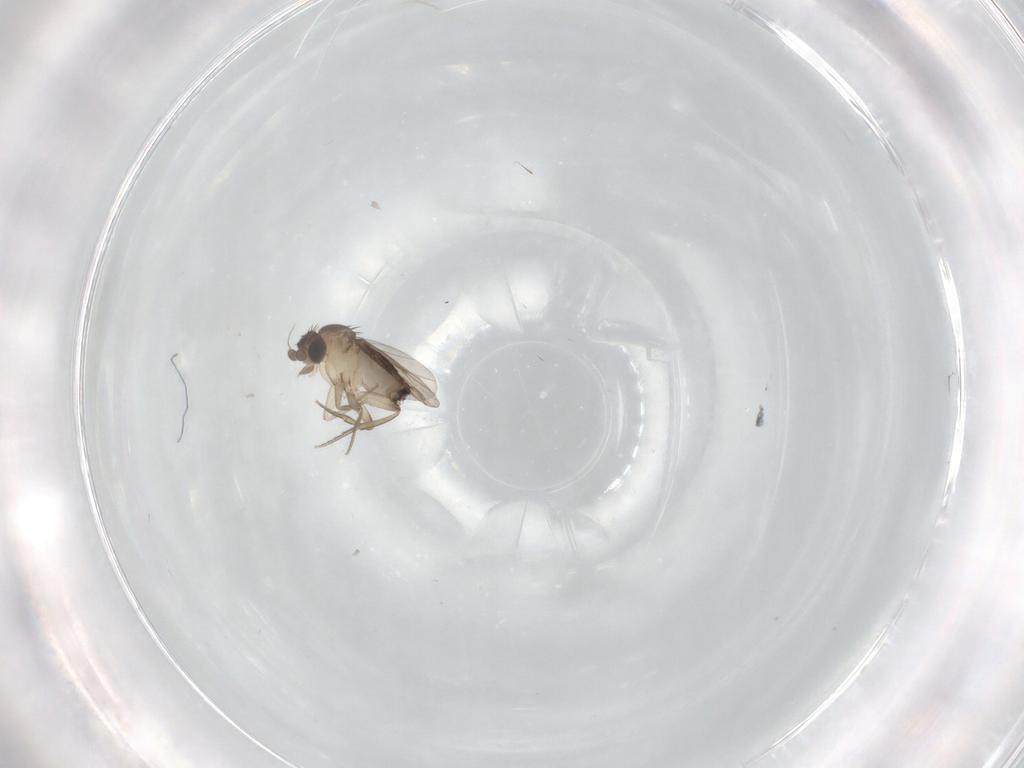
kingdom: Animalia
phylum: Arthropoda
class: Insecta
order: Diptera
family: Phoridae
